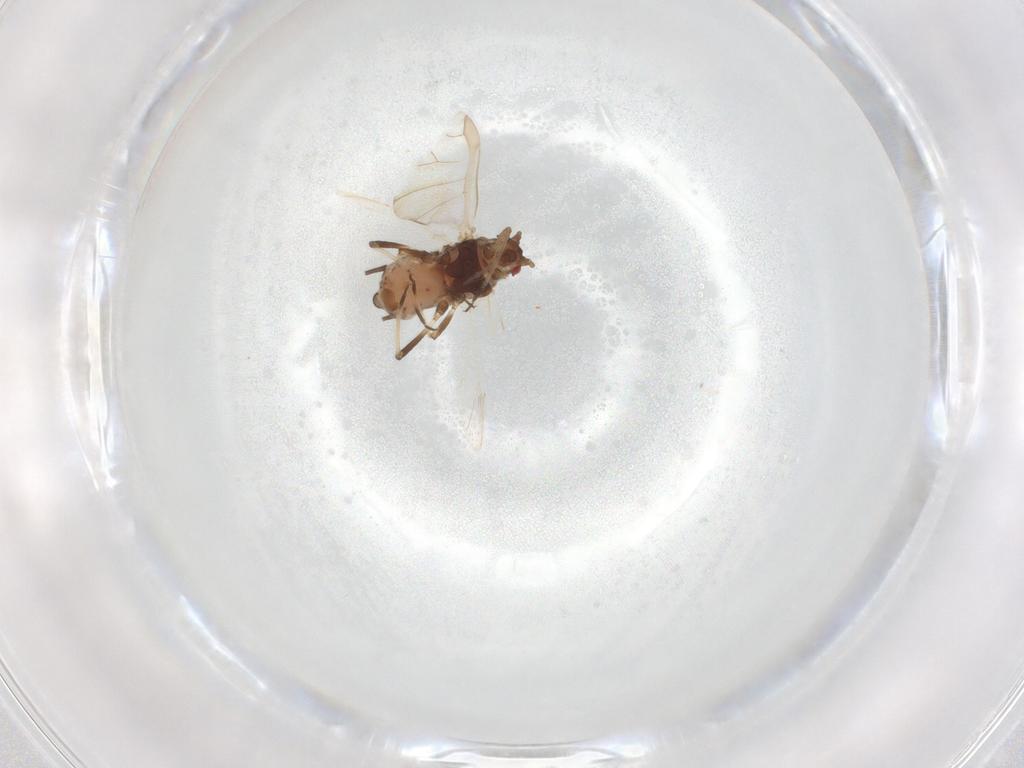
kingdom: Animalia
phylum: Arthropoda
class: Insecta
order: Hemiptera
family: Aphididae
